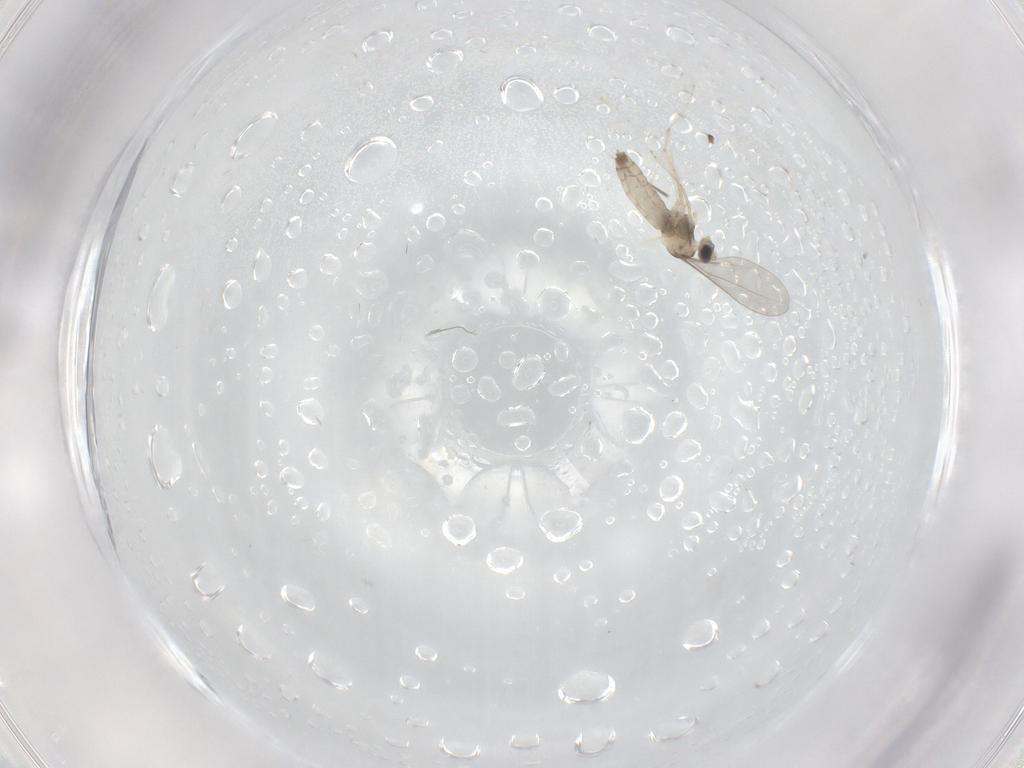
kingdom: Animalia
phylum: Arthropoda
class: Insecta
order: Diptera
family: Cecidomyiidae
